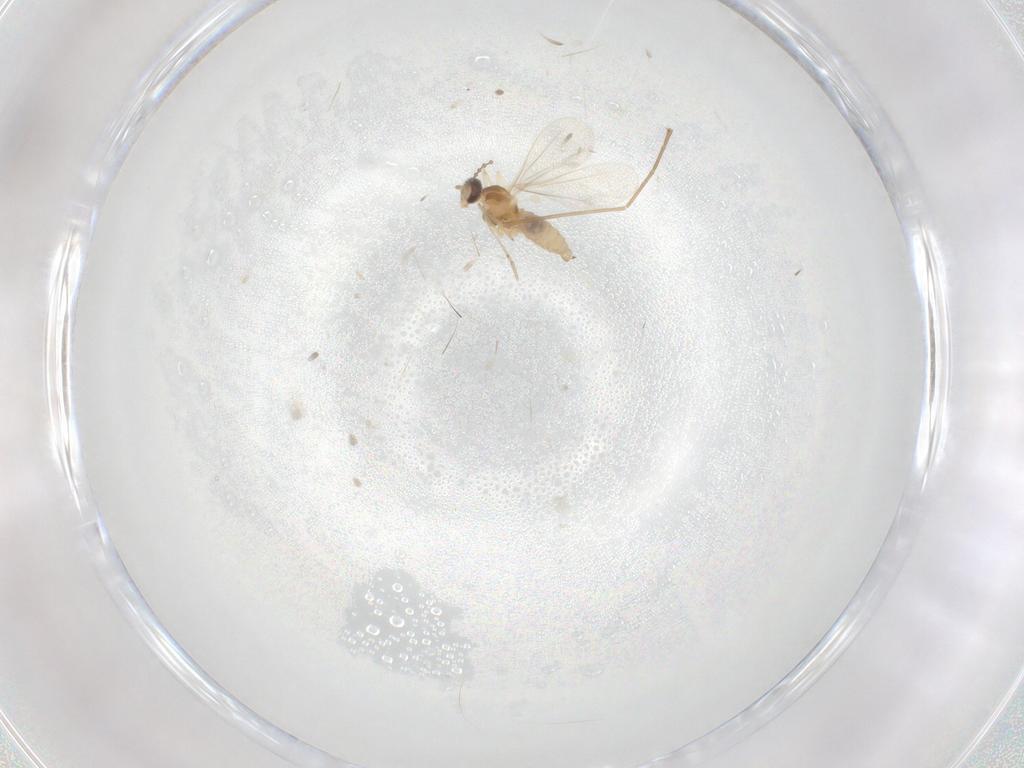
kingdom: Animalia
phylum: Arthropoda
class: Insecta
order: Diptera
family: Cecidomyiidae
